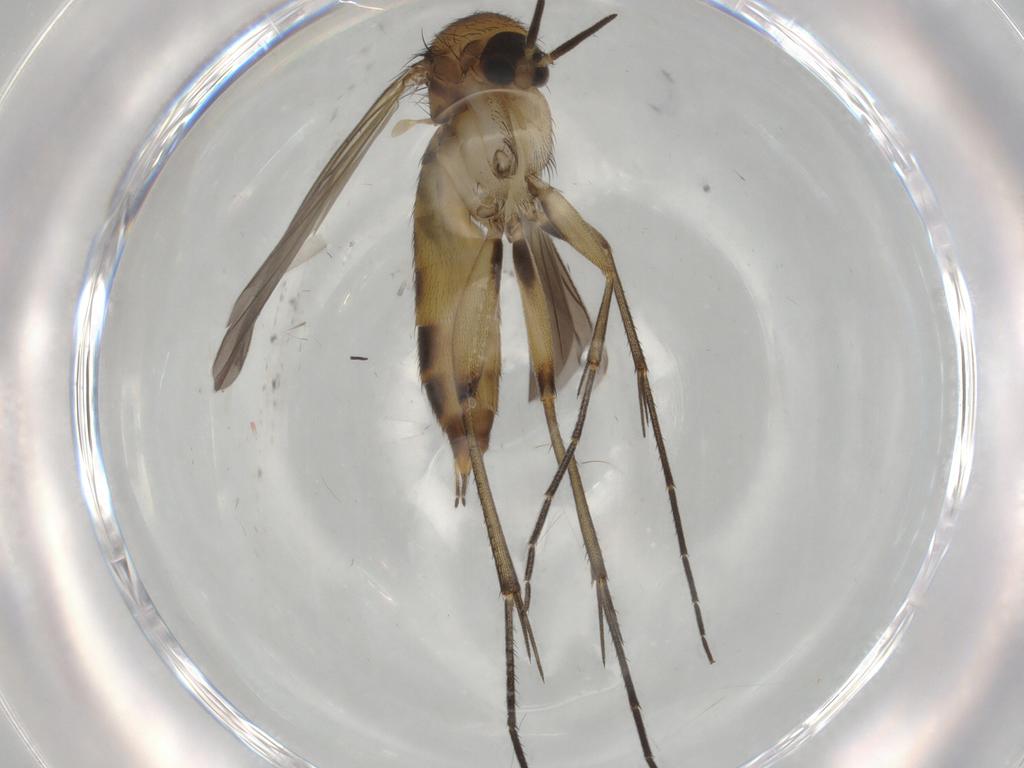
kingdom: Animalia
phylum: Arthropoda
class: Insecta
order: Diptera
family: Mycetophilidae
